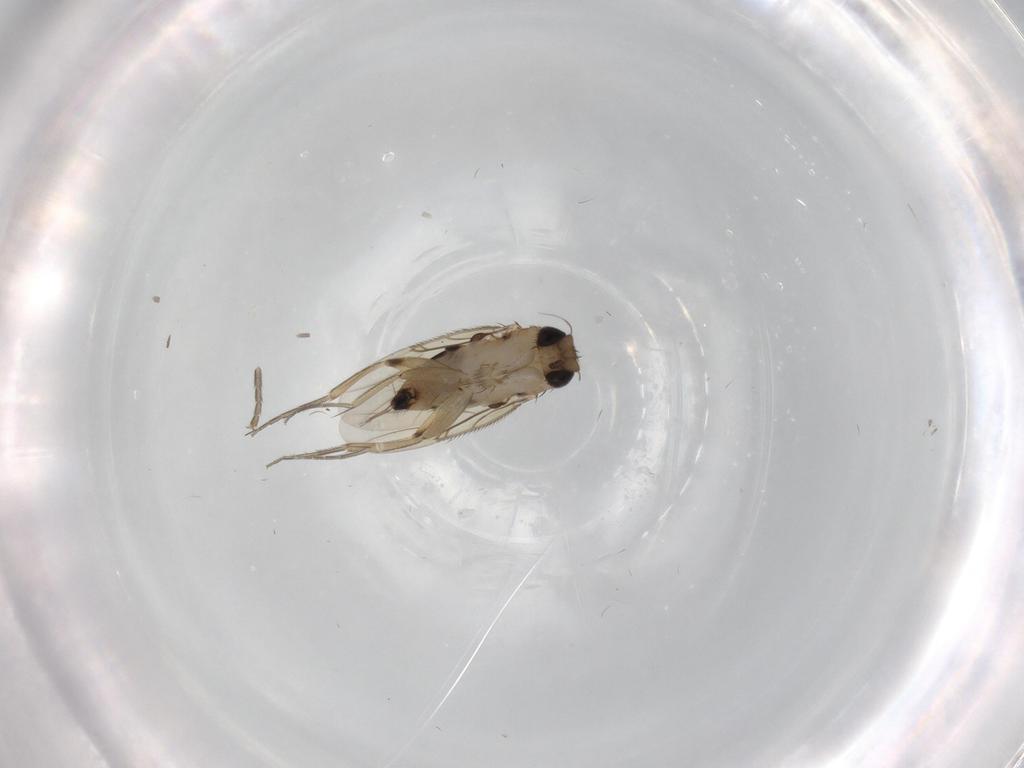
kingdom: Animalia
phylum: Arthropoda
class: Insecta
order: Diptera
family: Phoridae
